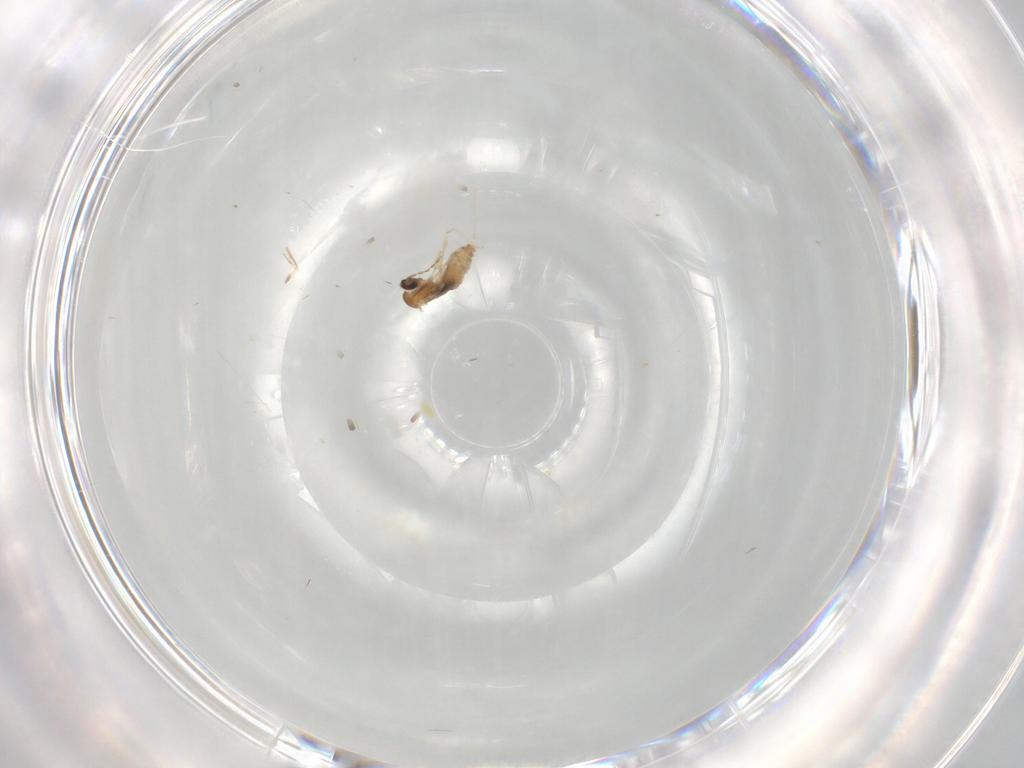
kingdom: Animalia
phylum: Arthropoda
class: Insecta
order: Diptera
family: Cecidomyiidae
